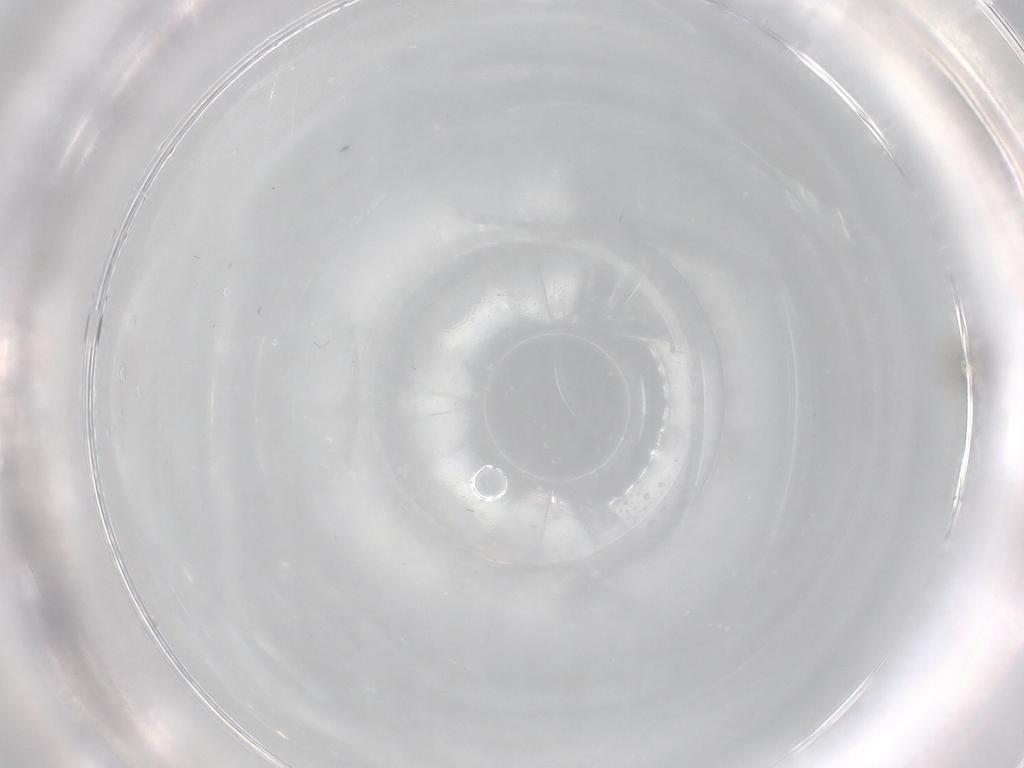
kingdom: Animalia
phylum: Arthropoda
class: Insecta
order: Diptera
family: Cecidomyiidae
